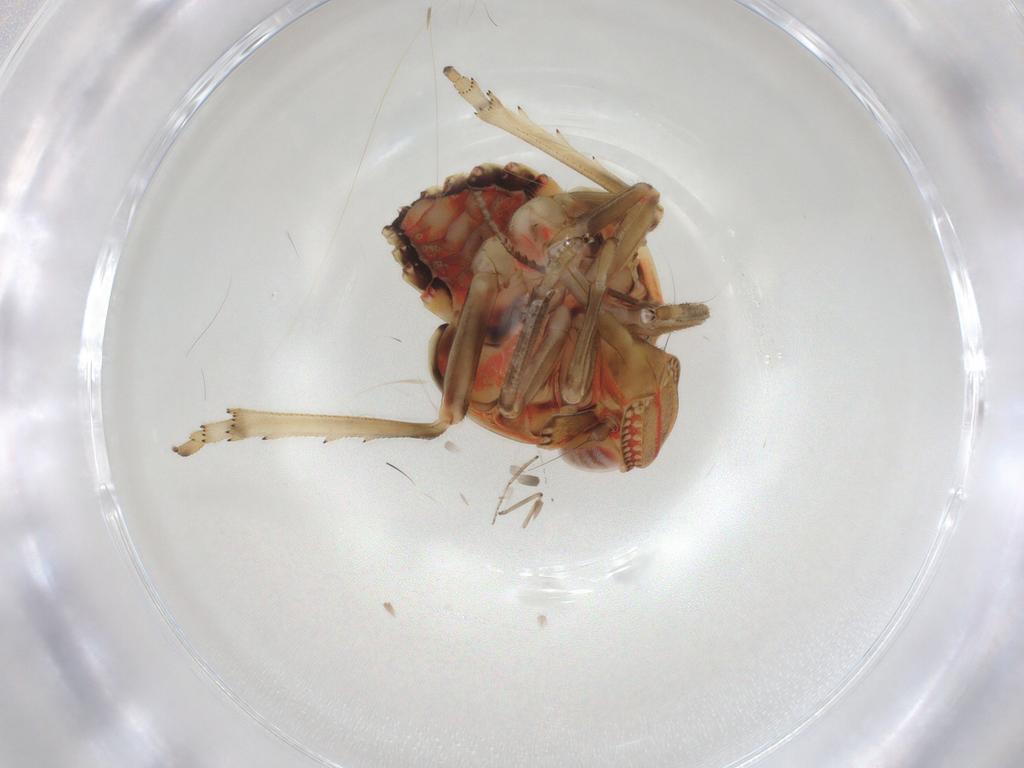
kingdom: Animalia
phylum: Arthropoda
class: Insecta
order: Hemiptera
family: Tropiduchidae
